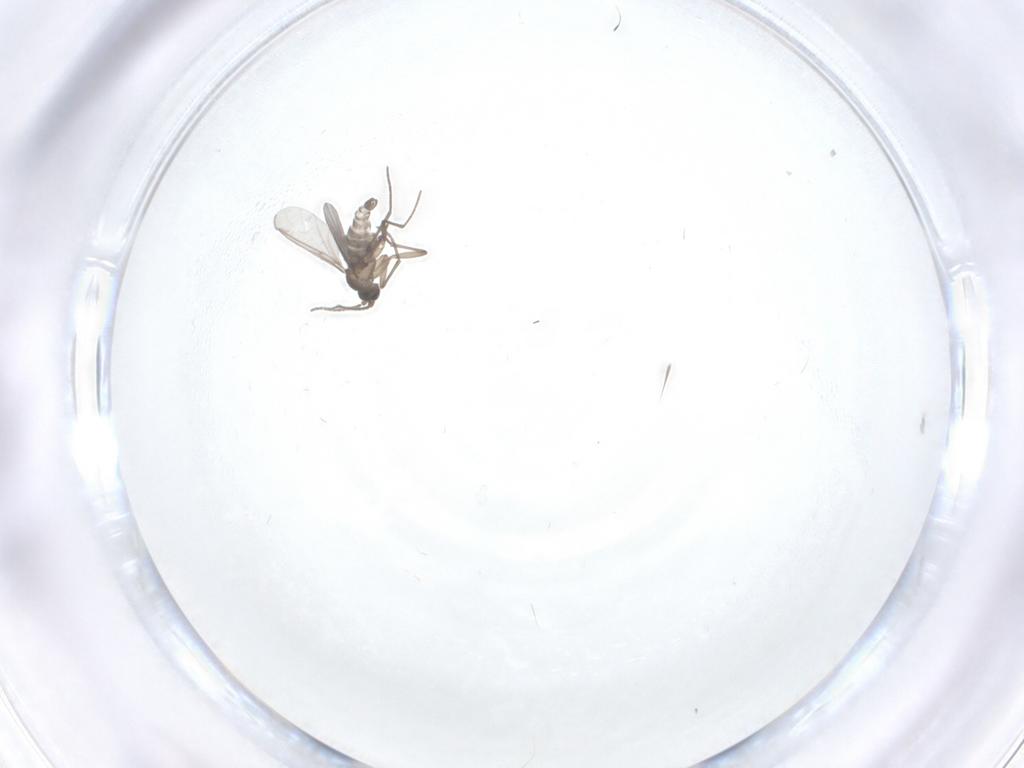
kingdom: Animalia
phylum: Arthropoda
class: Insecta
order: Diptera
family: Sciaridae
